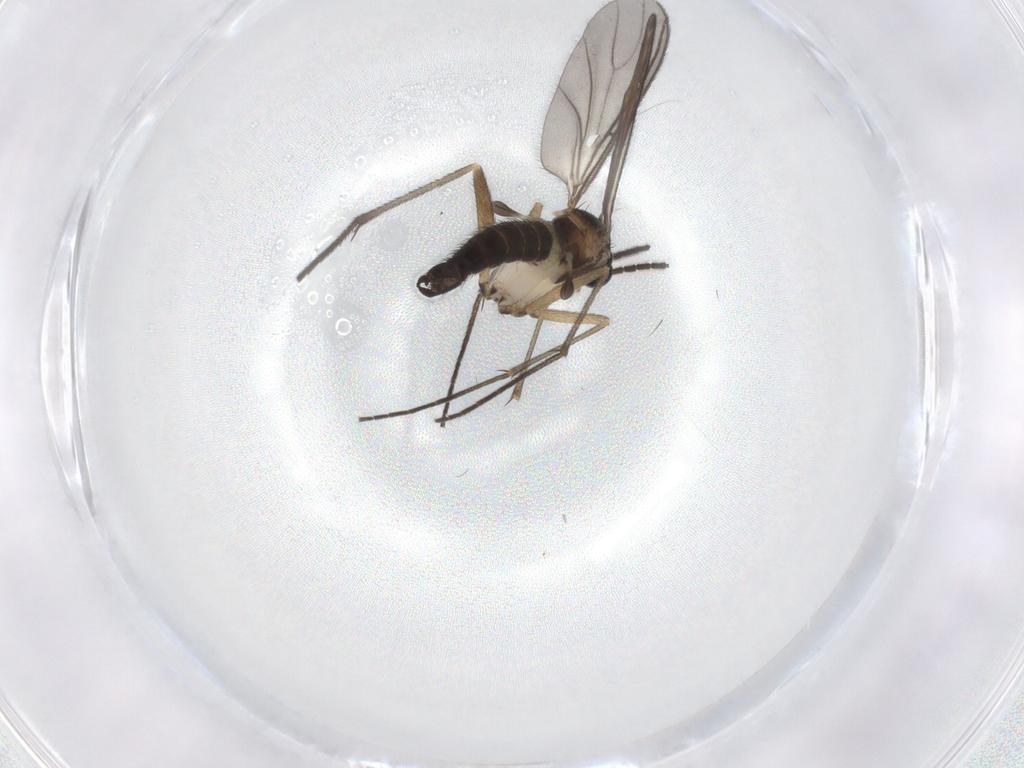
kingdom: Animalia
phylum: Arthropoda
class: Insecta
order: Diptera
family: Sciaridae
